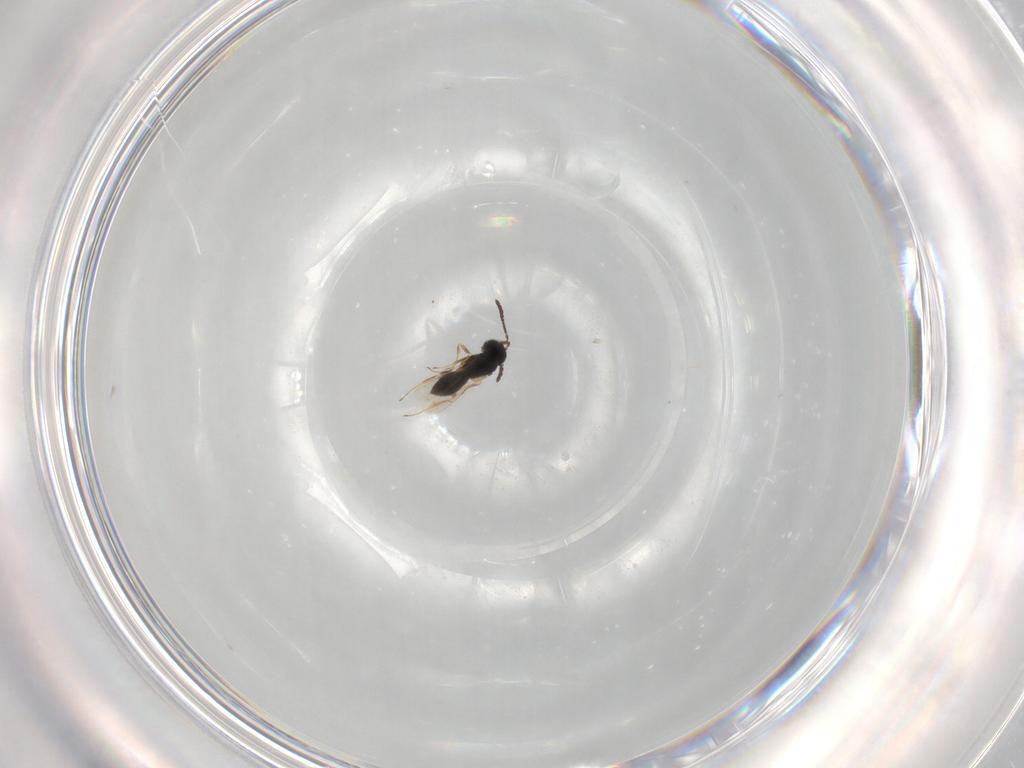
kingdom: Animalia
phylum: Arthropoda
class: Insecta
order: Hymenoptera
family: Scelionidae
